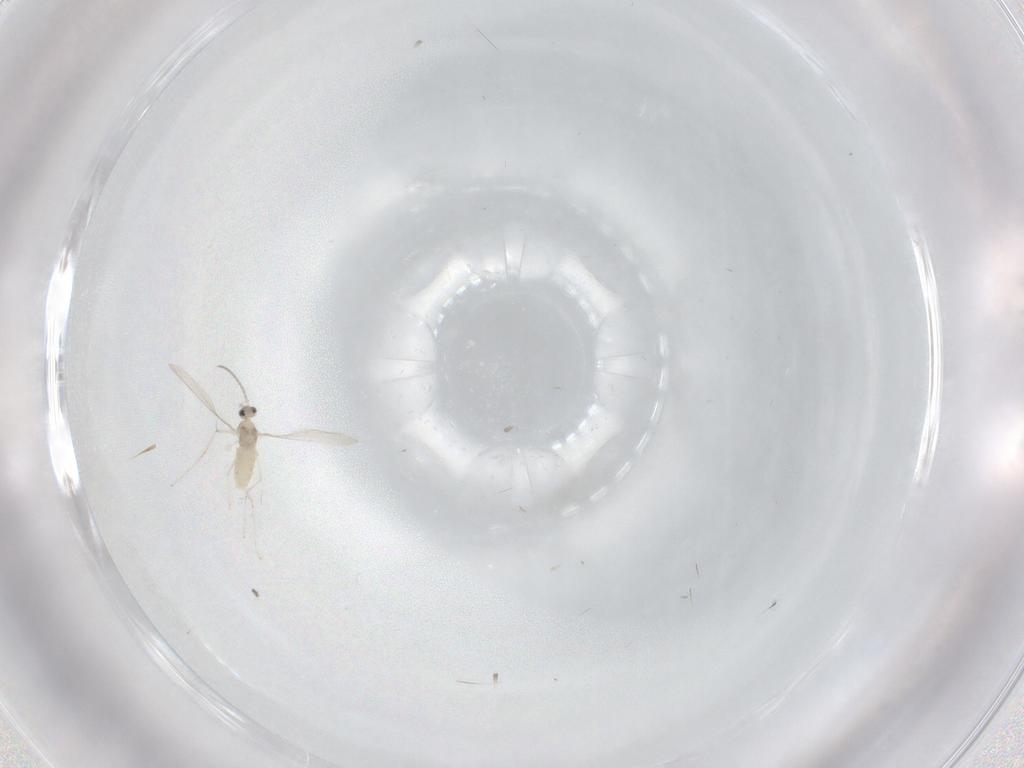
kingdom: Animalia
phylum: Arthropoda
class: Insecta
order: Diptera
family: Cecidomyiidae
